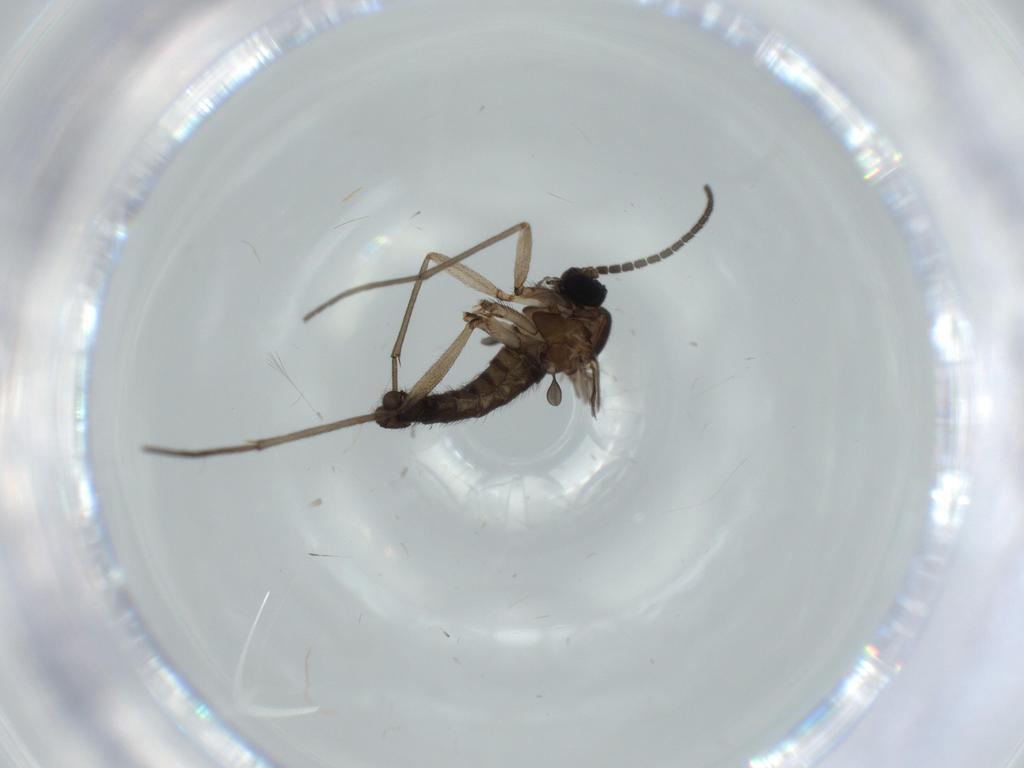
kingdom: Animalia
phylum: Arthropoda
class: Insecta
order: Diptera
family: Sciaridae
